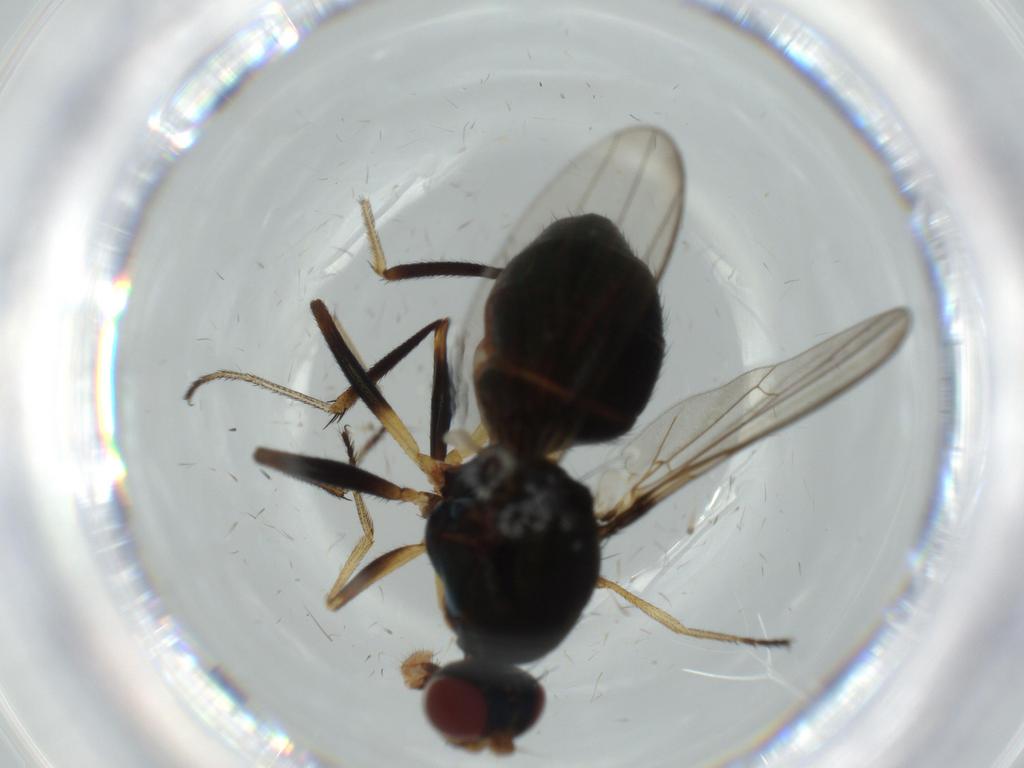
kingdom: Animalia
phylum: Arthropoda
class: Insecta
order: Diptera
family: Sepsidae
